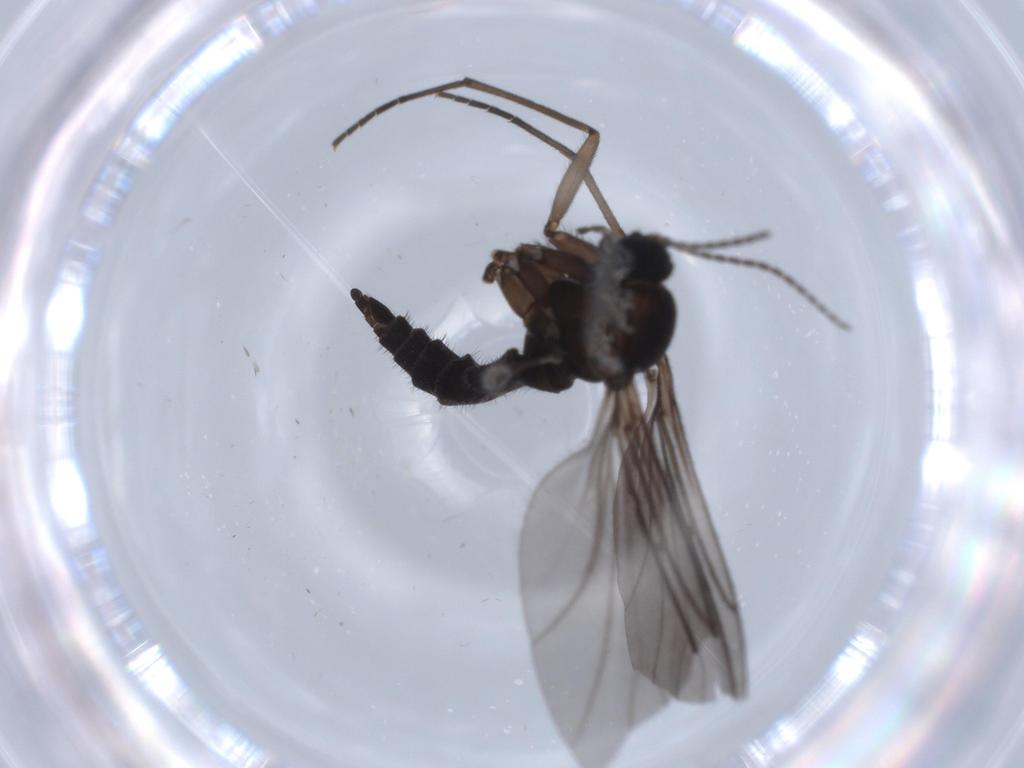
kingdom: Animalia
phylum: Arthropoda
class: Insecta
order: Diptera
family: Sciaridae
